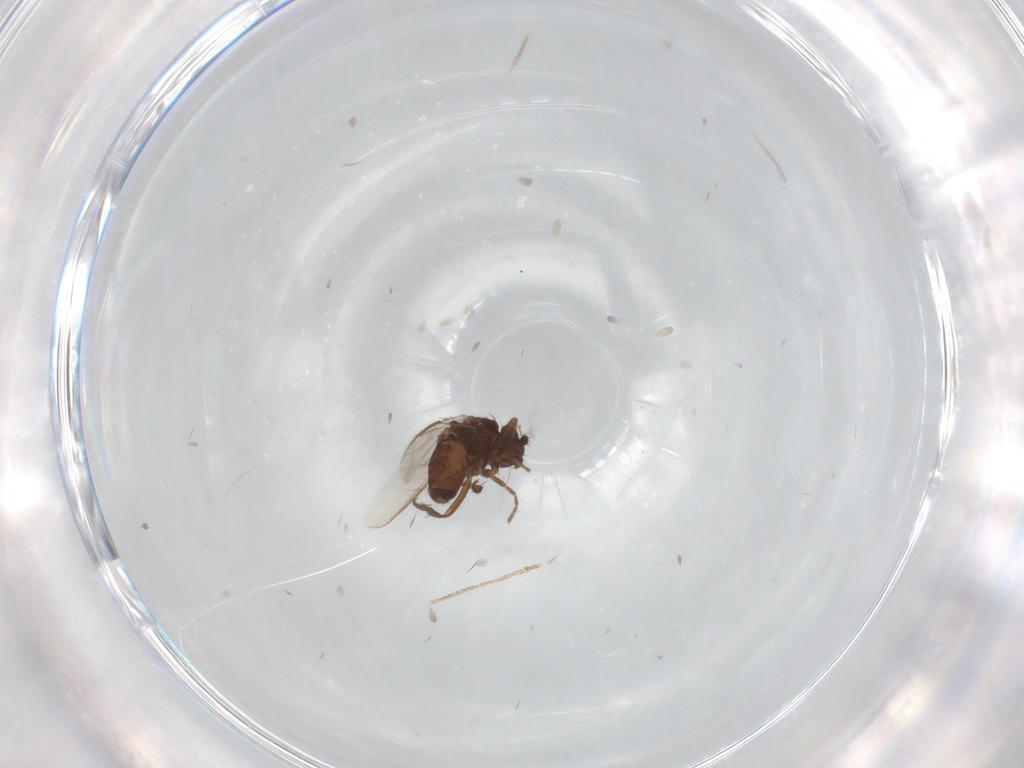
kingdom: Animalia
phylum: Arthropoda
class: Insecta
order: Diptera
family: Sphaeroceridae
